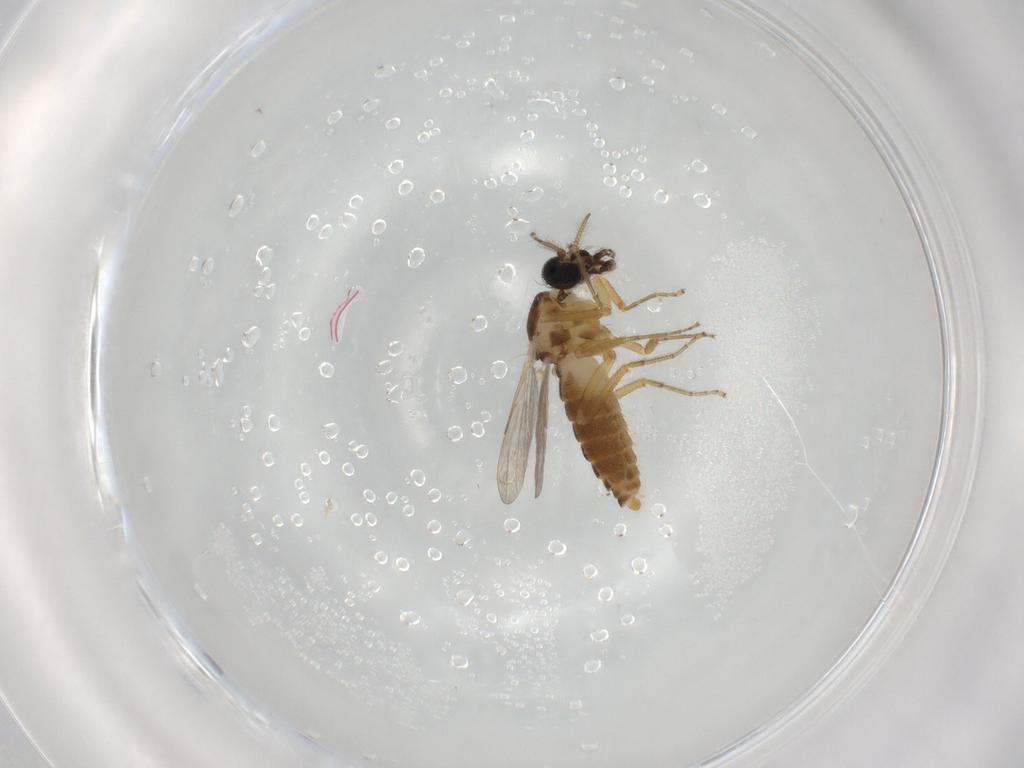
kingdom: Animalia
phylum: Arthropoda
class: Insecta
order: Diptera
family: Ceratopogonidae
